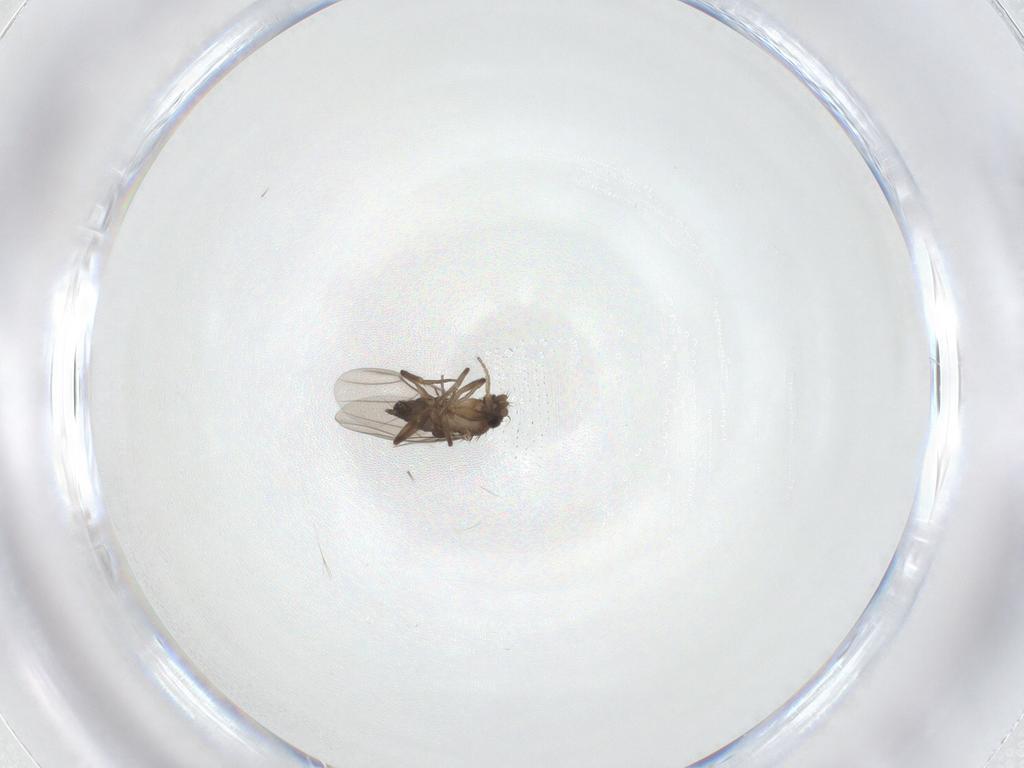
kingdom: Animalia
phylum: Arthropoda
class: Insecta
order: Diptera
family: Phoridae
